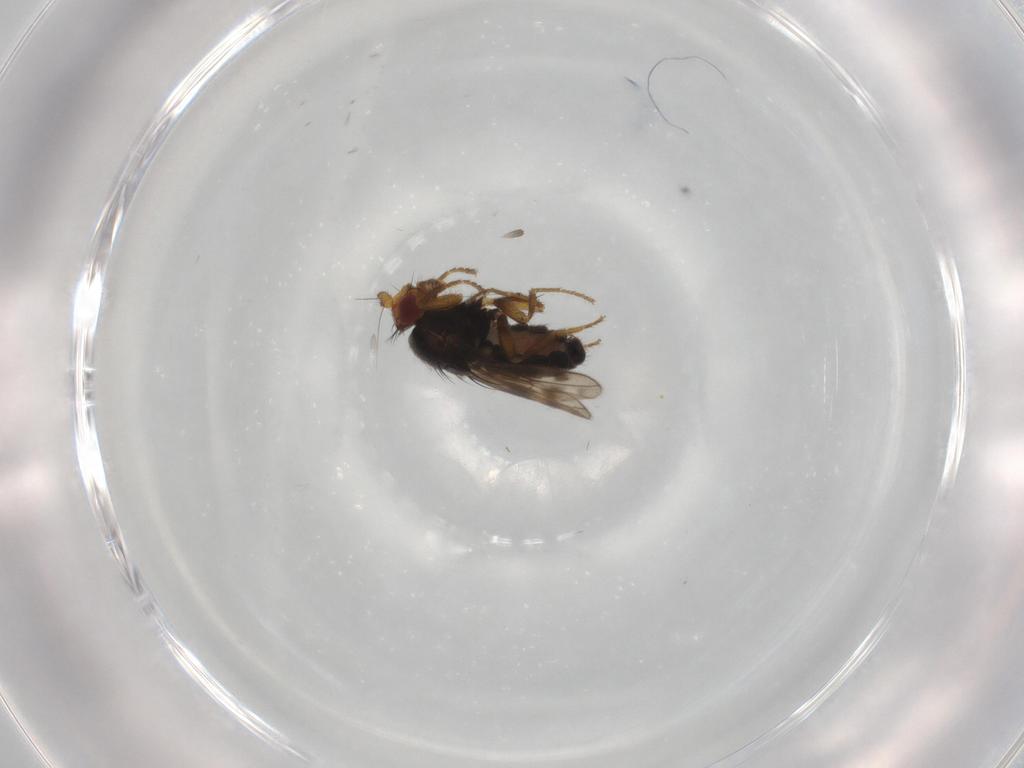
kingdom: Animalia
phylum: Arthropoda
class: Insecta
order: Diptera
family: Sphaeroceridae
